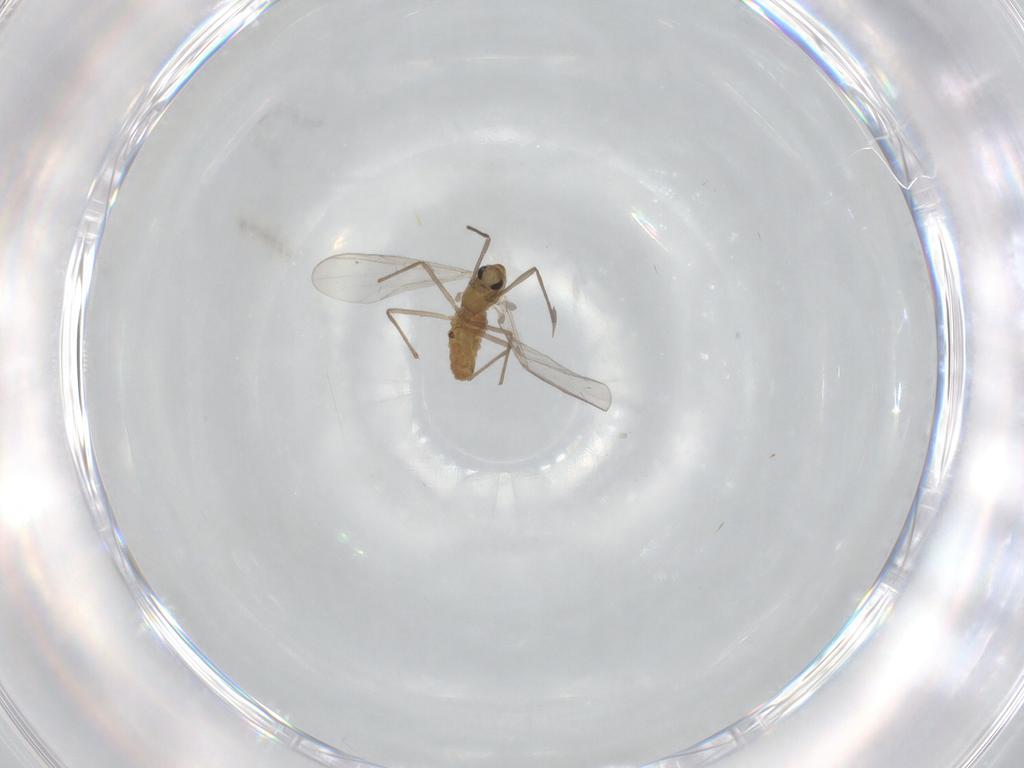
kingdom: Animalia
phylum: Arthropoda
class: Insecta
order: Diptera
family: Chironomidae
